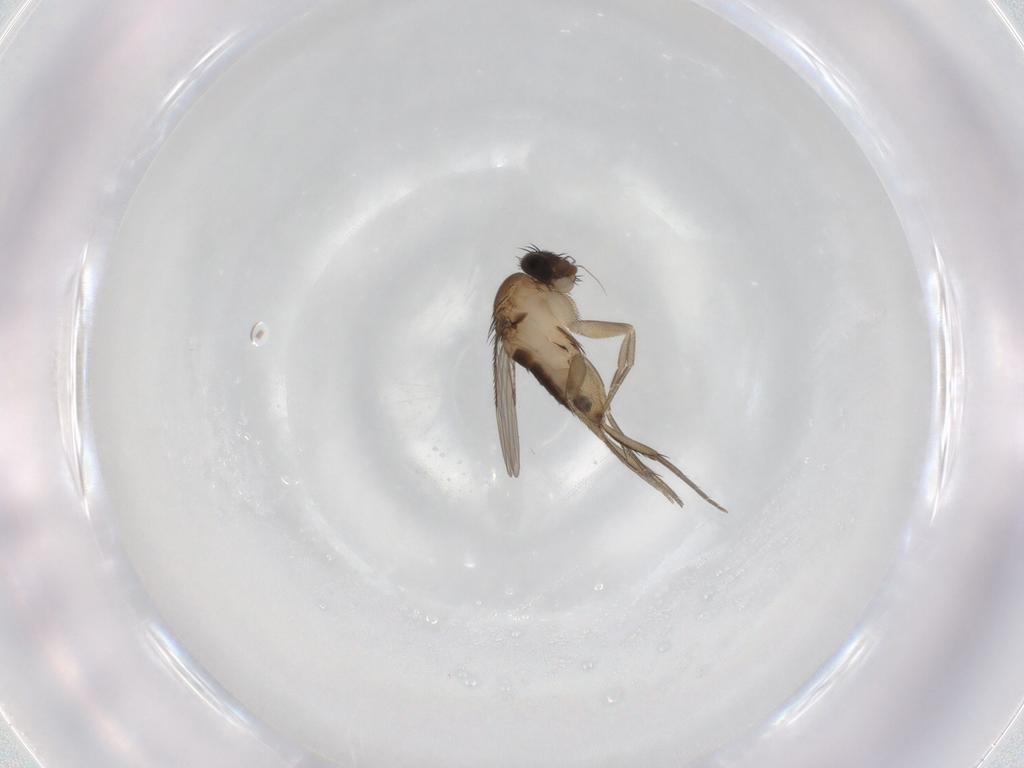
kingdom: Animalia
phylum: Arthropoda
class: Insecta
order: Diptera
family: Phoridae
